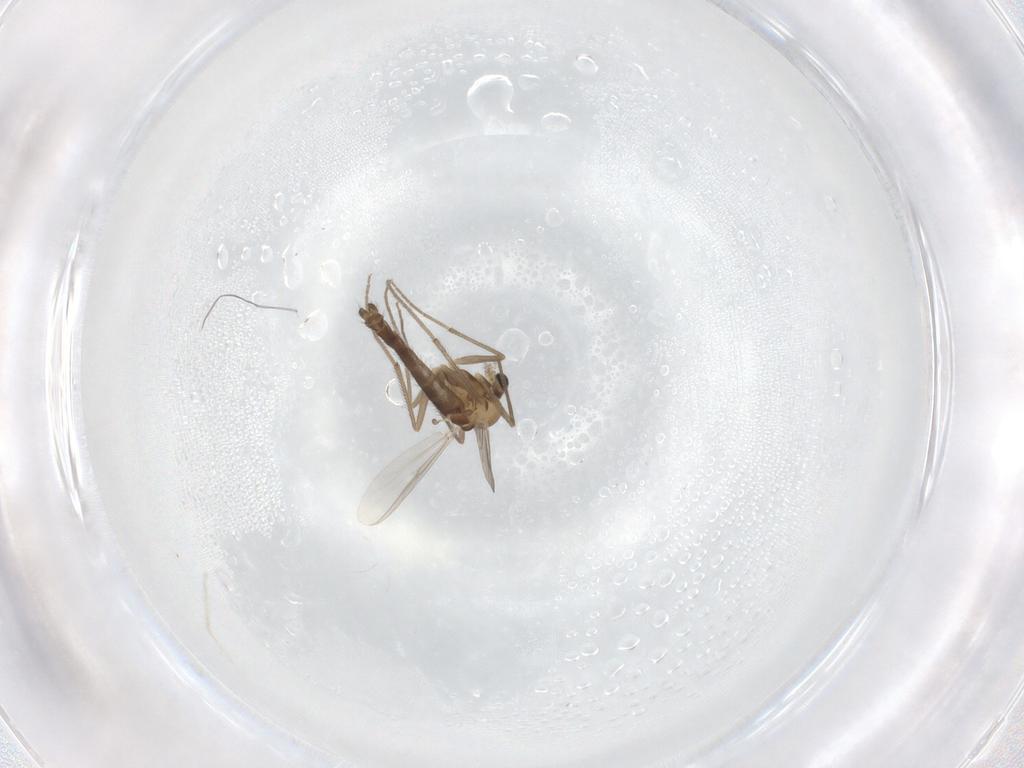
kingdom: Animalia
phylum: Arthropoda
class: Insecta
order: Diptera
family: Chironomidae
